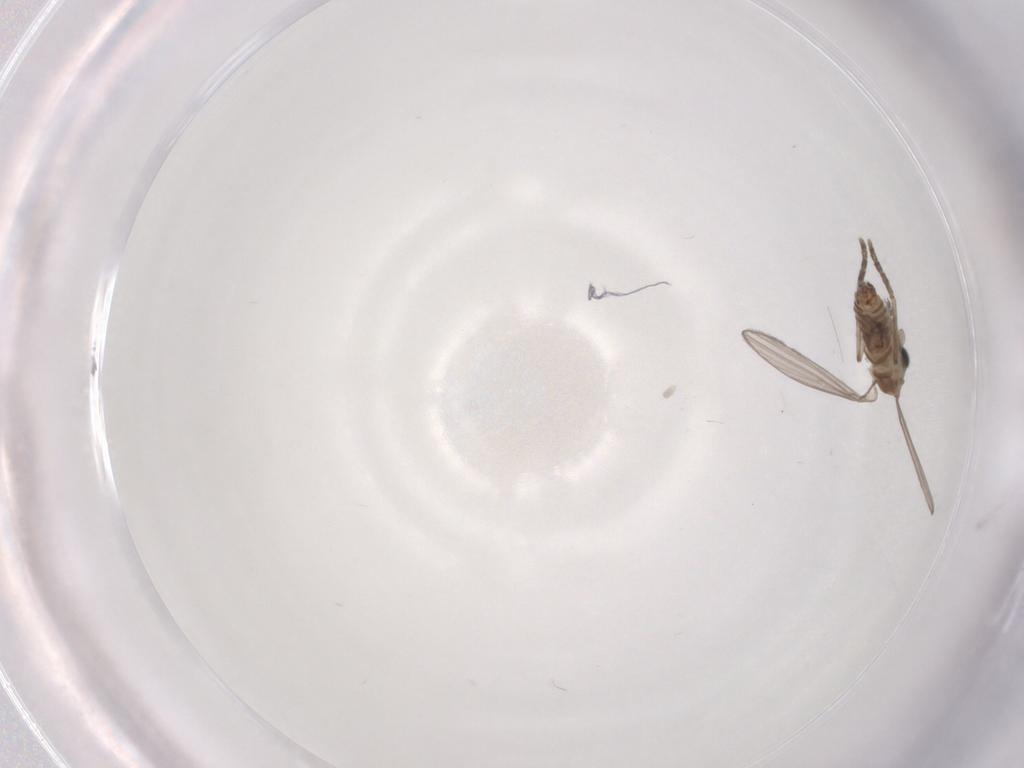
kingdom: Animalia
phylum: Arthropoda
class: Insecta
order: Diptera
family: Psychodidae
